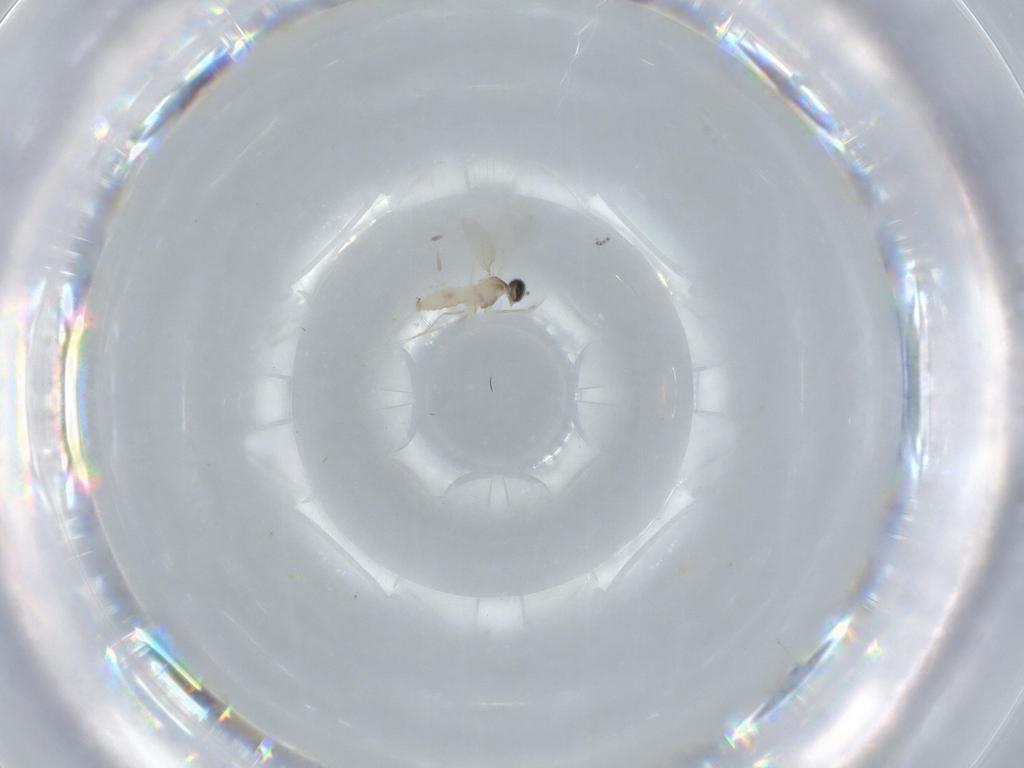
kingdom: Animalia
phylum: Arthropoda
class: Insecta
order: Diptera
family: Cecidomyiidae
